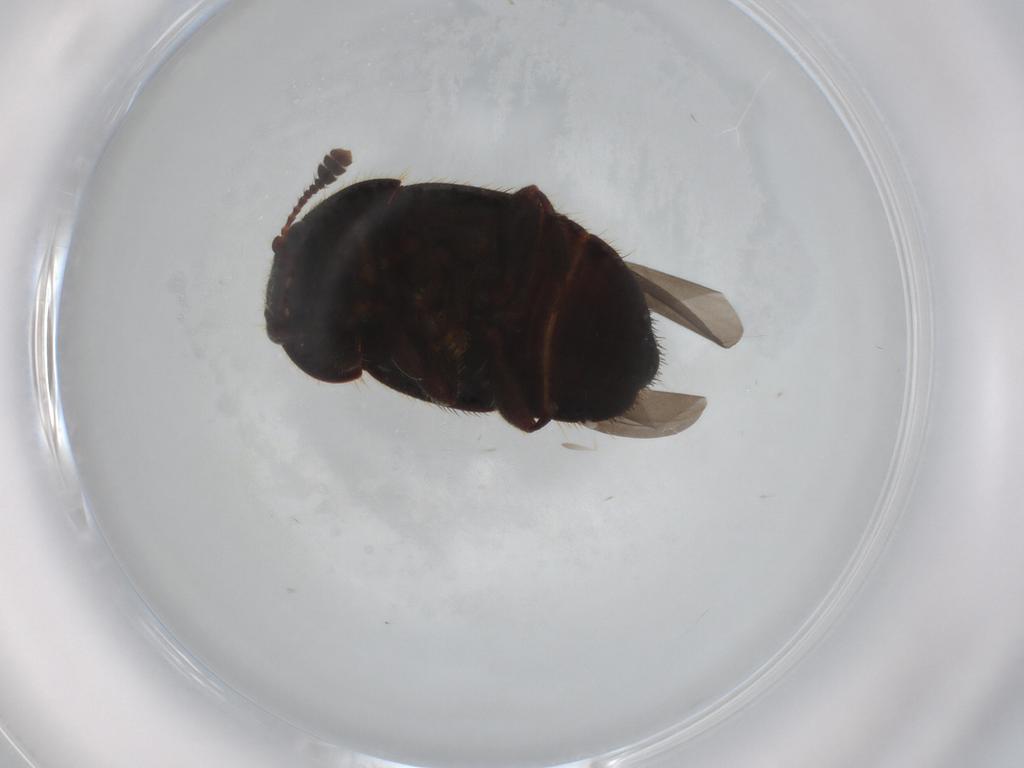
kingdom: Animalia
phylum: Arthropoda
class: Insecta
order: Coleoptera
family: Nitidulidae
